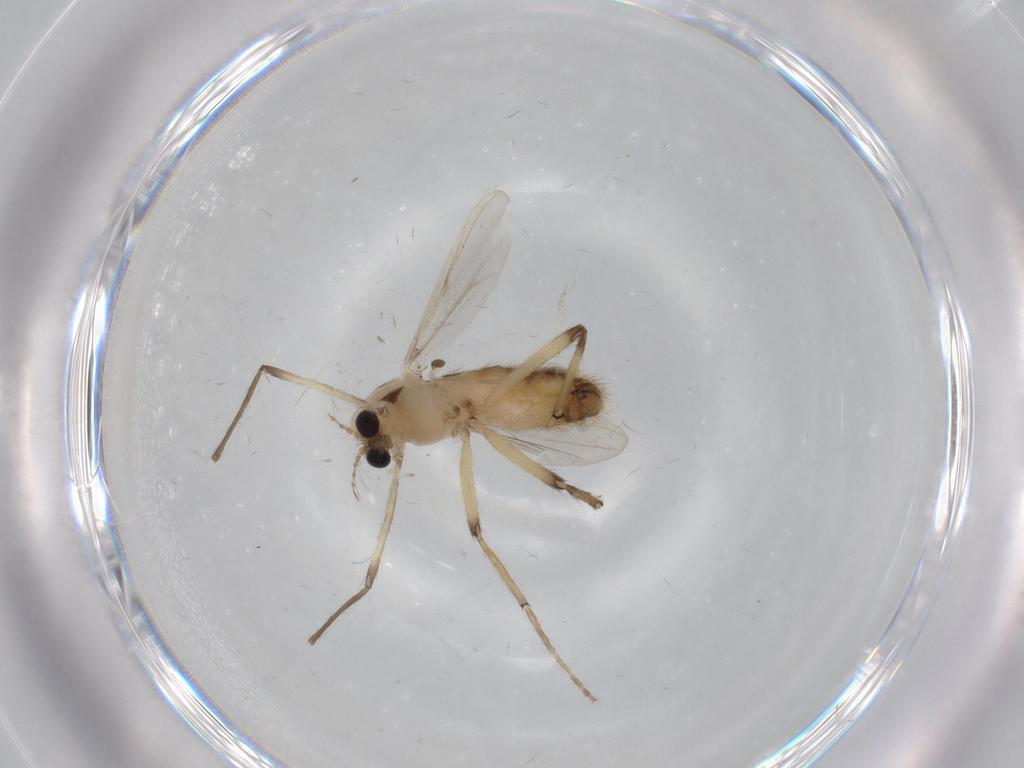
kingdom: Animalia
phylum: Arthropoda
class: Insecta
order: Diptera
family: Chironomidae
